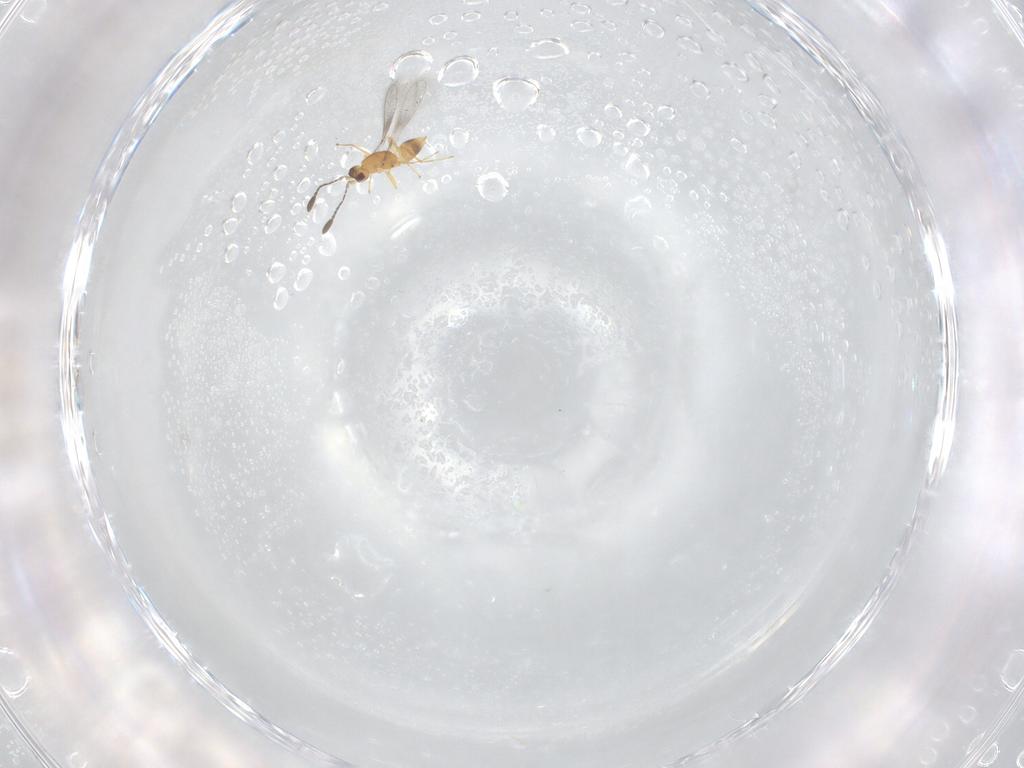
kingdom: Animalia
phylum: Arthropoda
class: Insecta
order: Hymenoptera
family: Mymaridae
